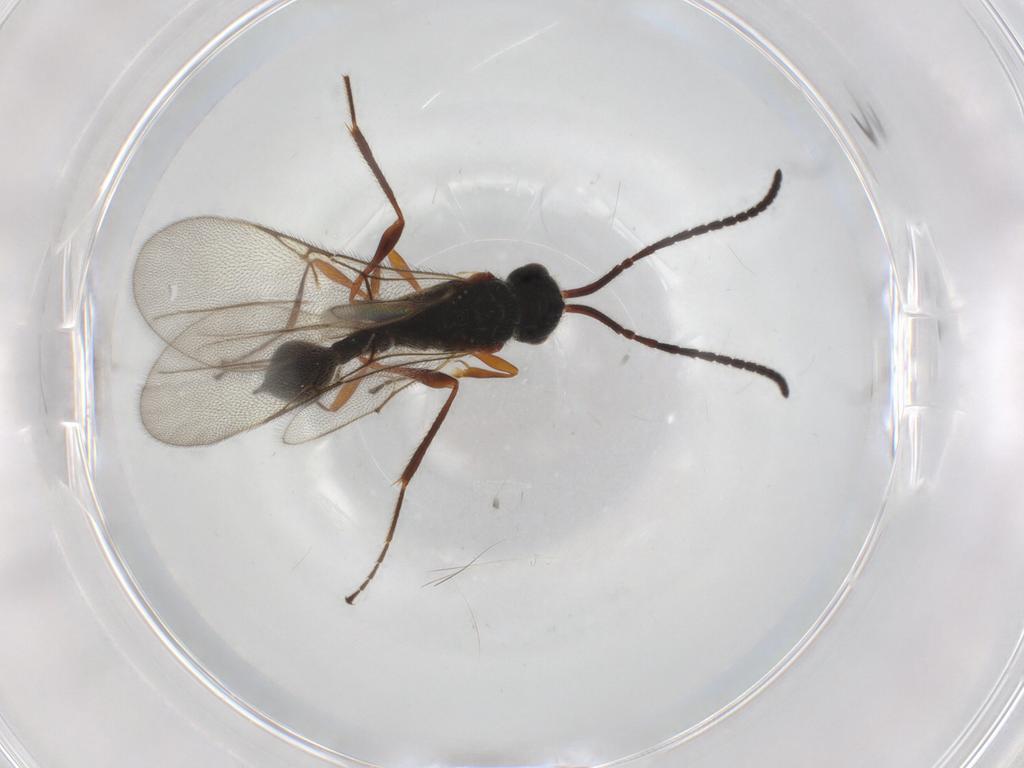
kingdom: Animalia
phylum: Arthropoda
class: Insecta
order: Hymenoptera
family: Diapriidae
